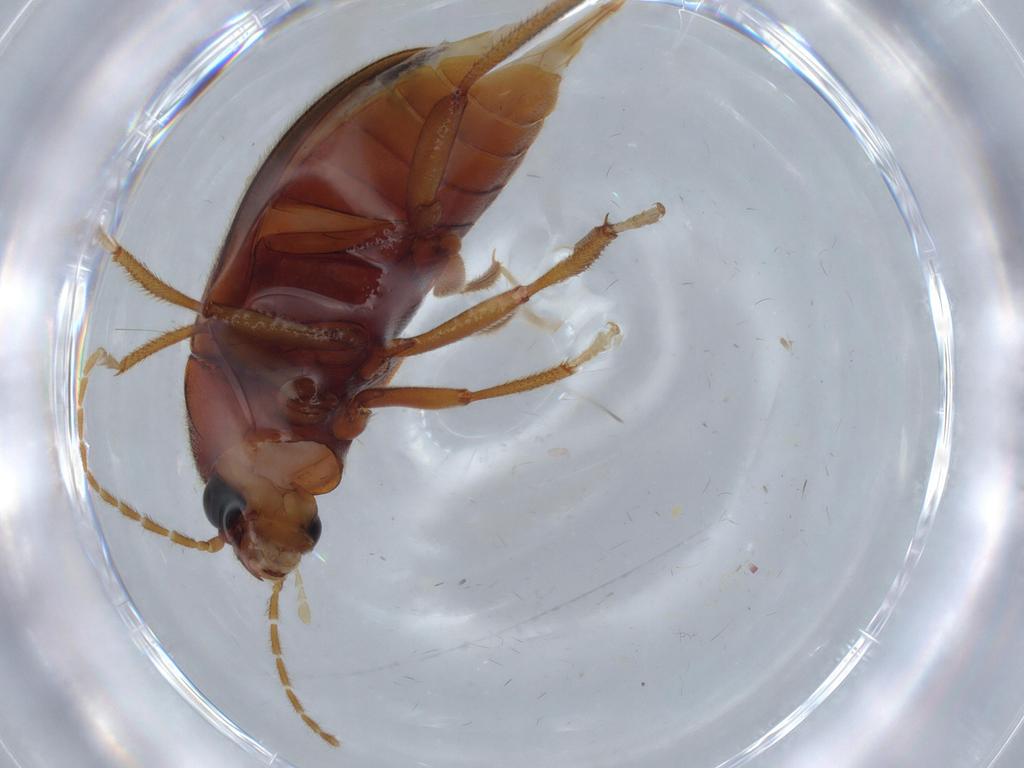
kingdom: Animalia
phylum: Arthropoda
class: Insecta
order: Coleoptera
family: Ptilodactylidae
